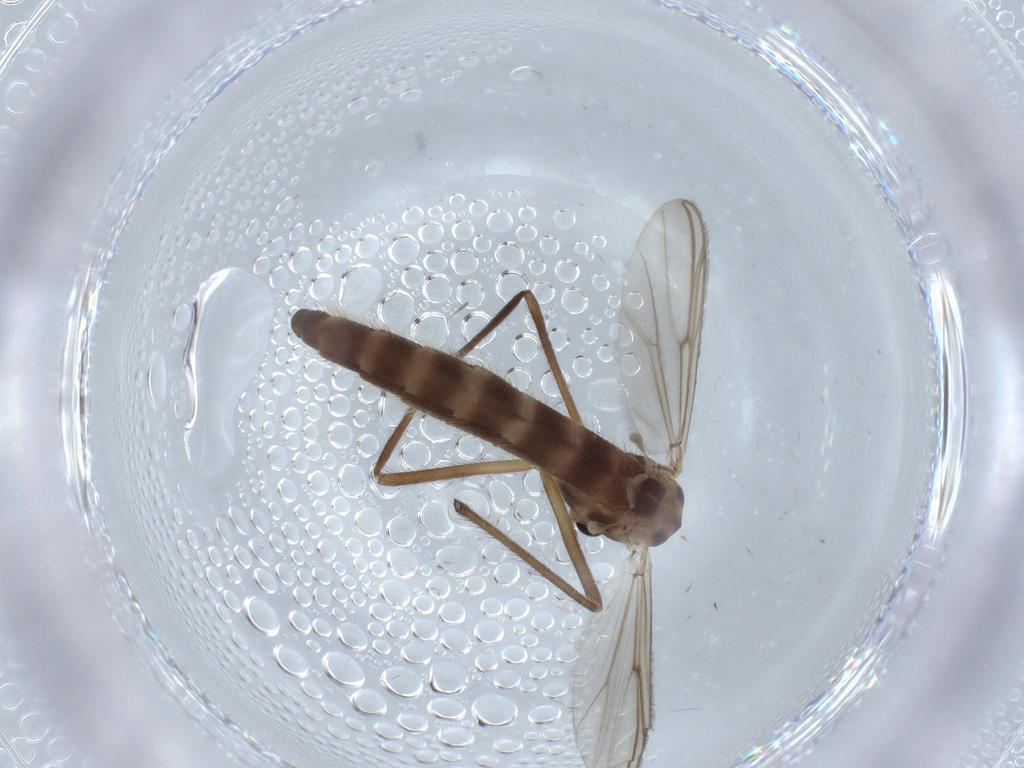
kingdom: Animalia
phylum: Arthropoda
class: Insecta
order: Diptera
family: Chironomidae
